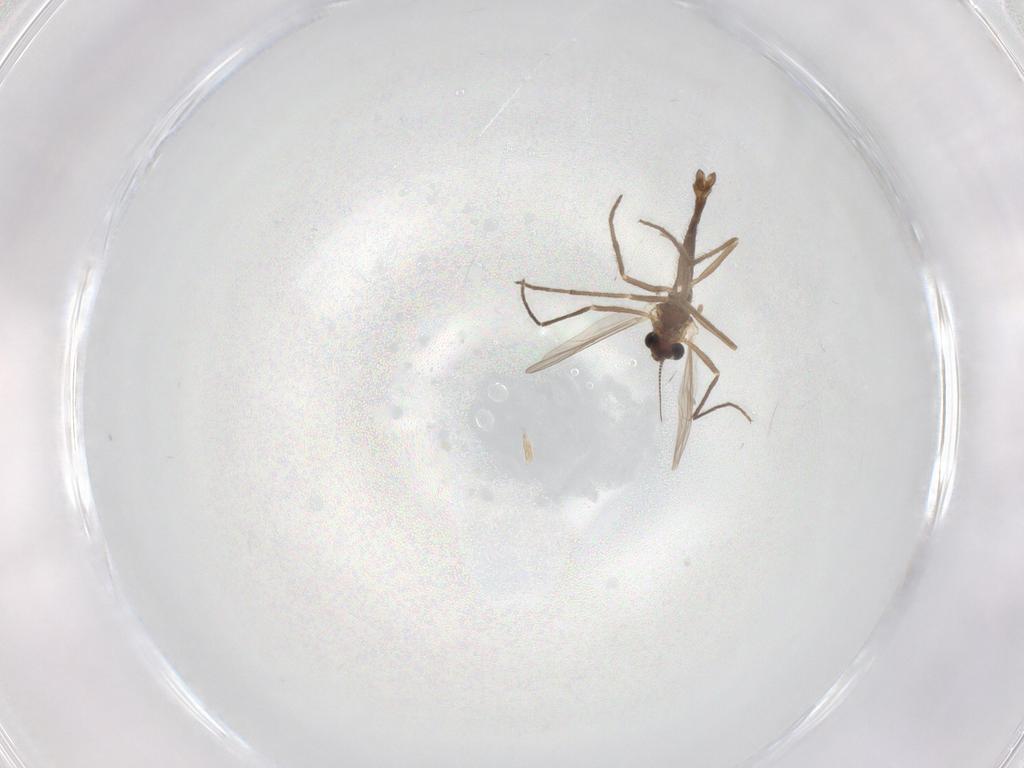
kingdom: Animalia
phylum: Arthropoda
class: Insecta
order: Diptera
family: Chironomidae
